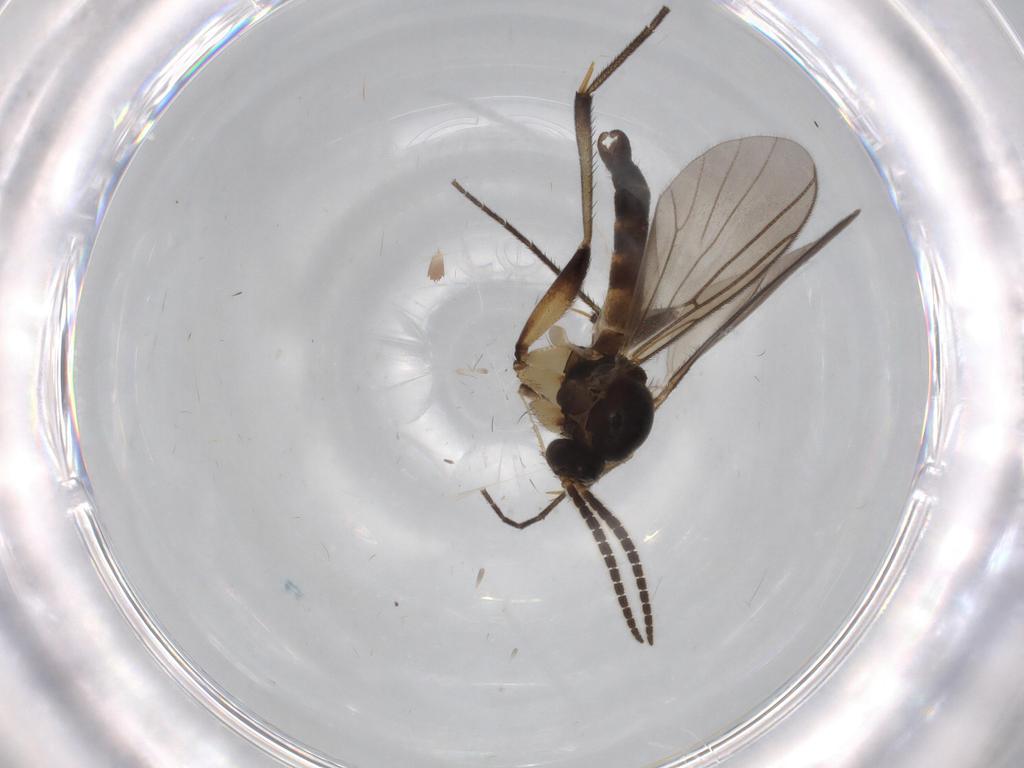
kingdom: Animalia
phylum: Arthropoda
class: Insecta
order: Diptera
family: Mycetophilidae
